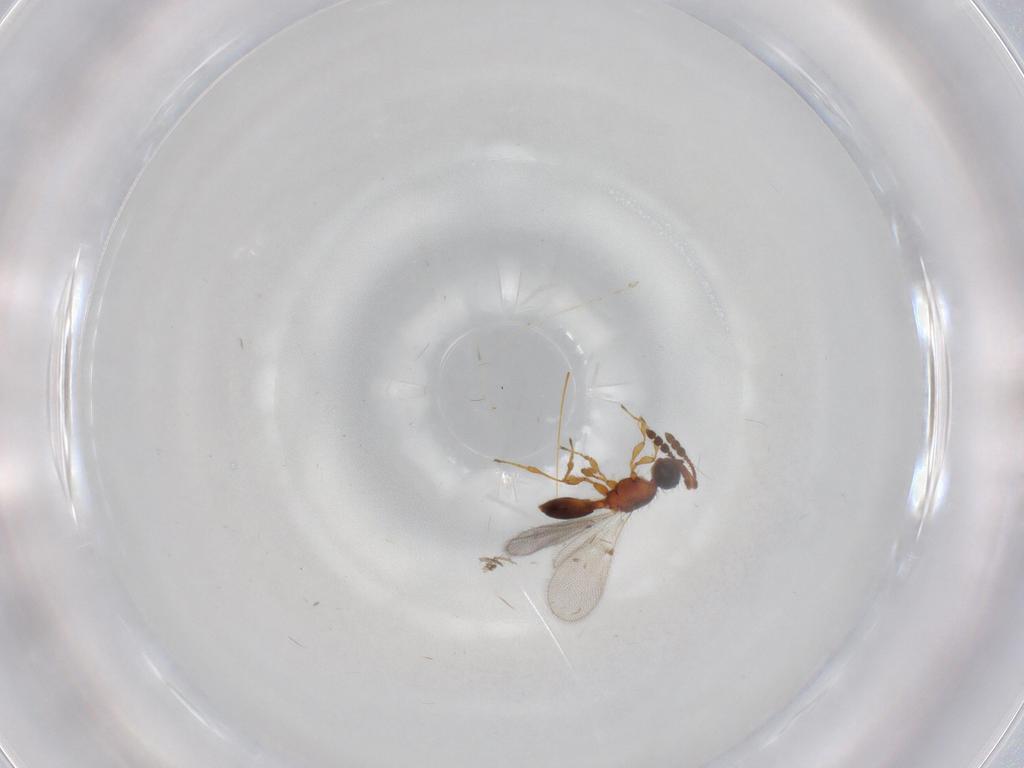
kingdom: Animalia
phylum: Arthropoda
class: Insecta
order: Hymenoptera
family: Diapriidae
